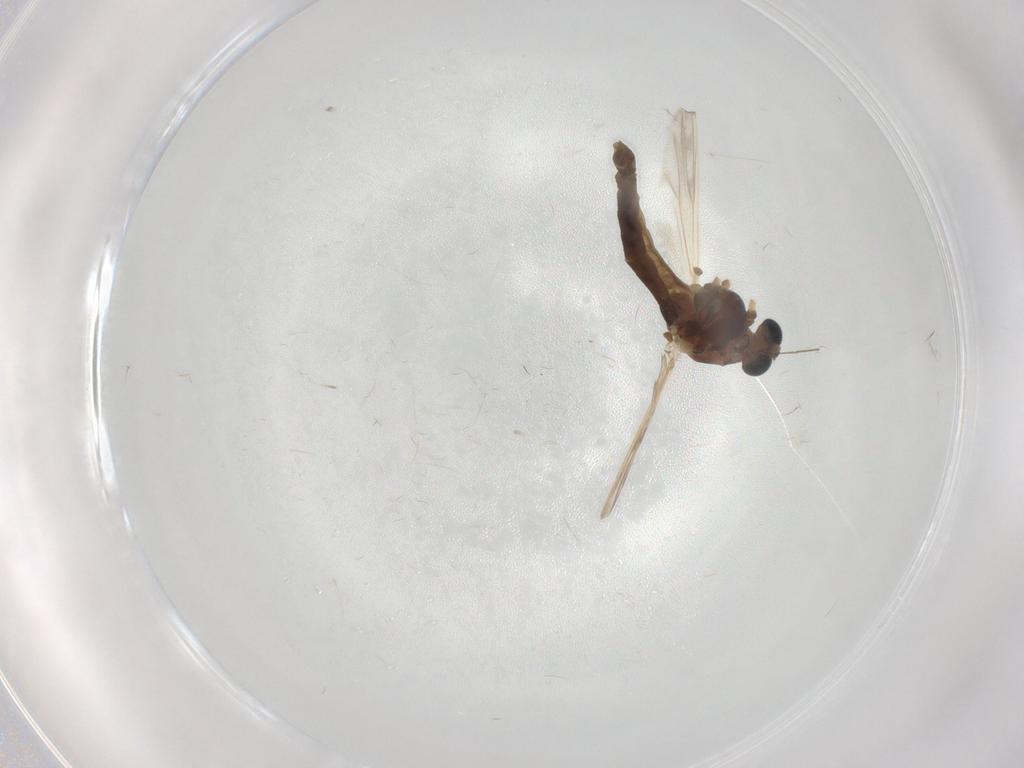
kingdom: Animalia
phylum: Arthropoda
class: Insecta
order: Diptera
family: Chironomidae
